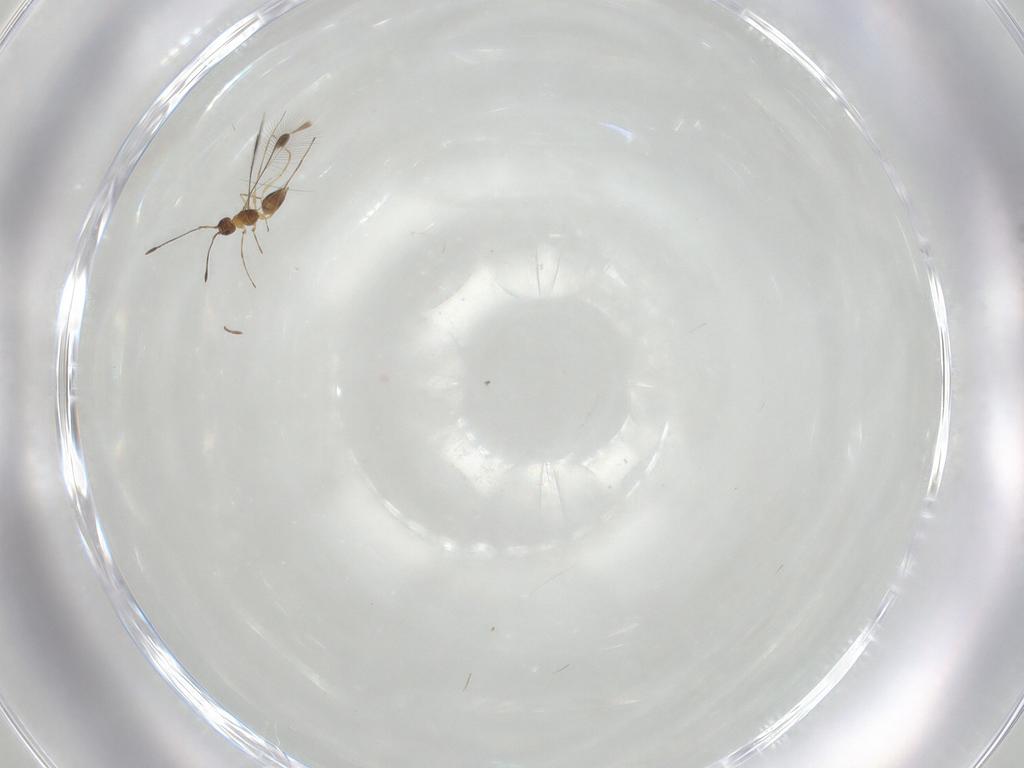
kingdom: Animalia
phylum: Arthropoda
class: Insecta
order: Psocodea
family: Lachesillidae
